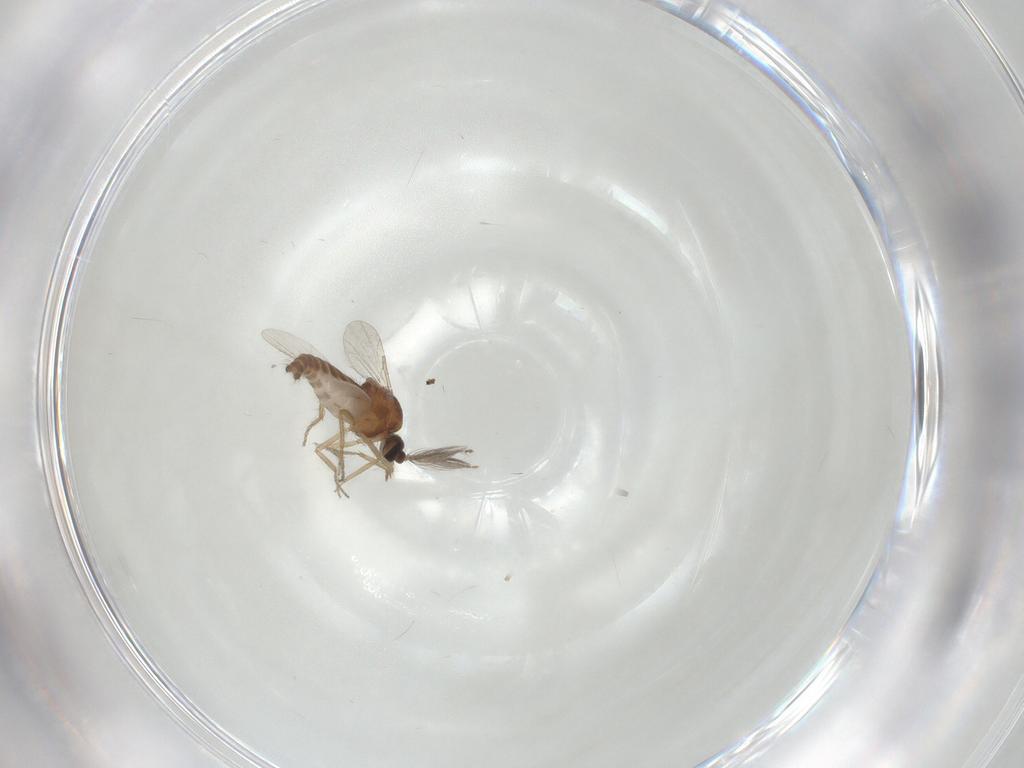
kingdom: Animalia
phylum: Arthropoda
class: Insecta
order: Diptera
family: Ceratopogonidae
